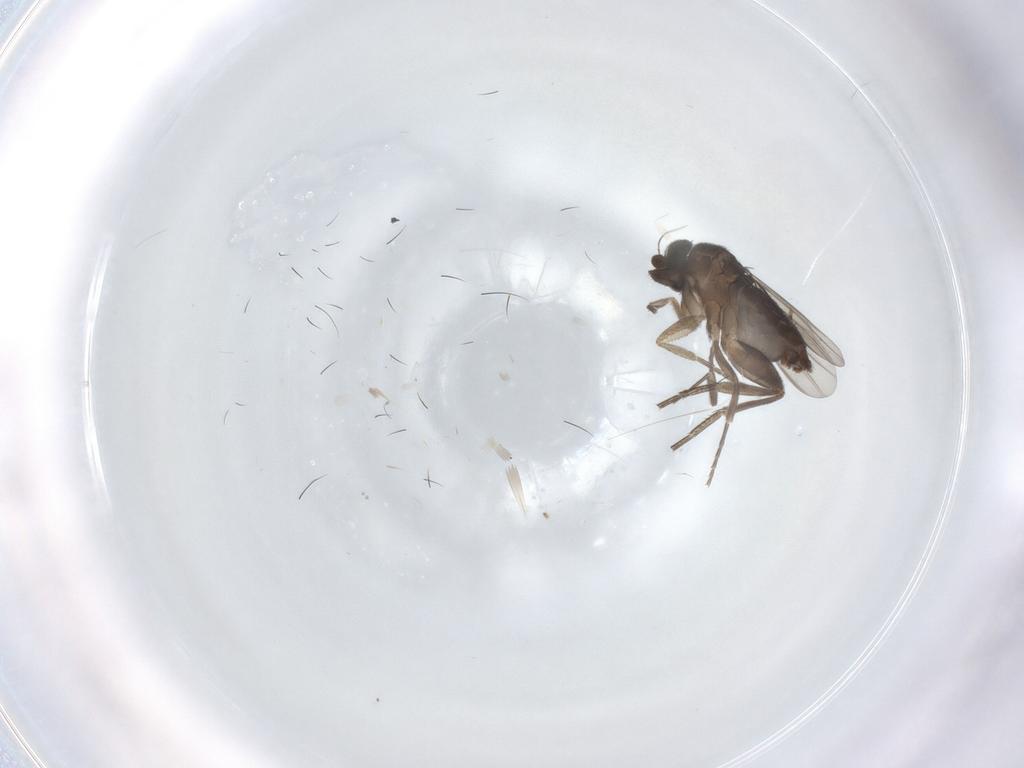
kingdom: Animalia
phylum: Arthropoda
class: Insecta
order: Diptera
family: Phoridae
